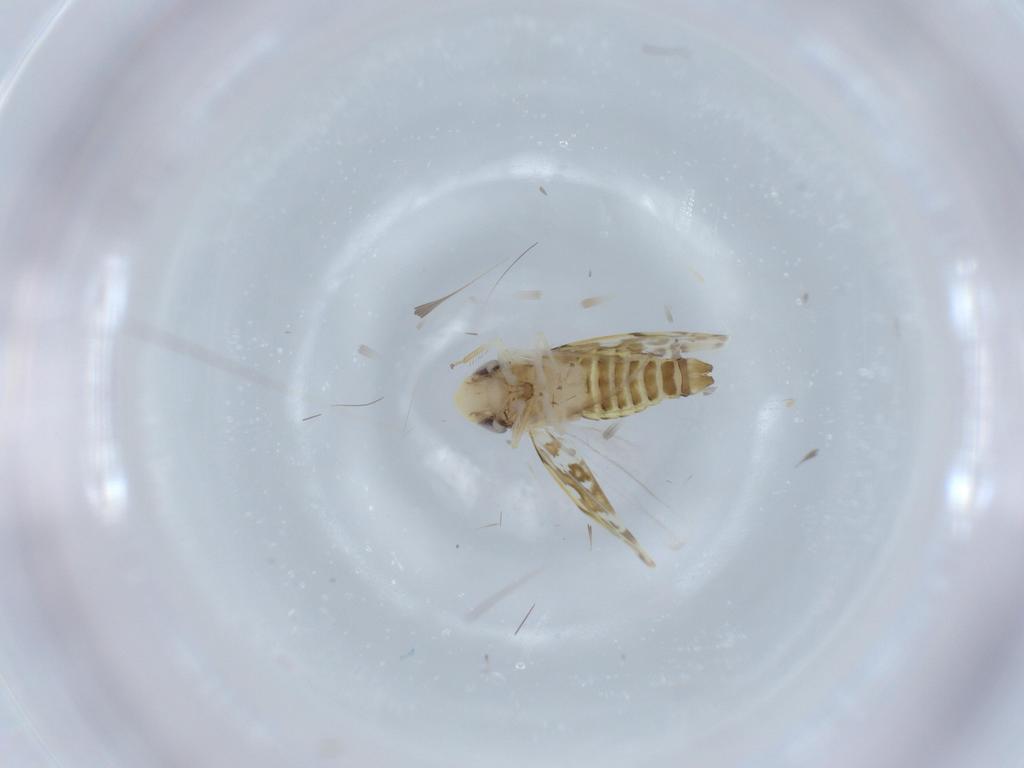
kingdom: Animalia
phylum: Arthropoda
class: Insecta
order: Hemiptera
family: Cicadellidae
